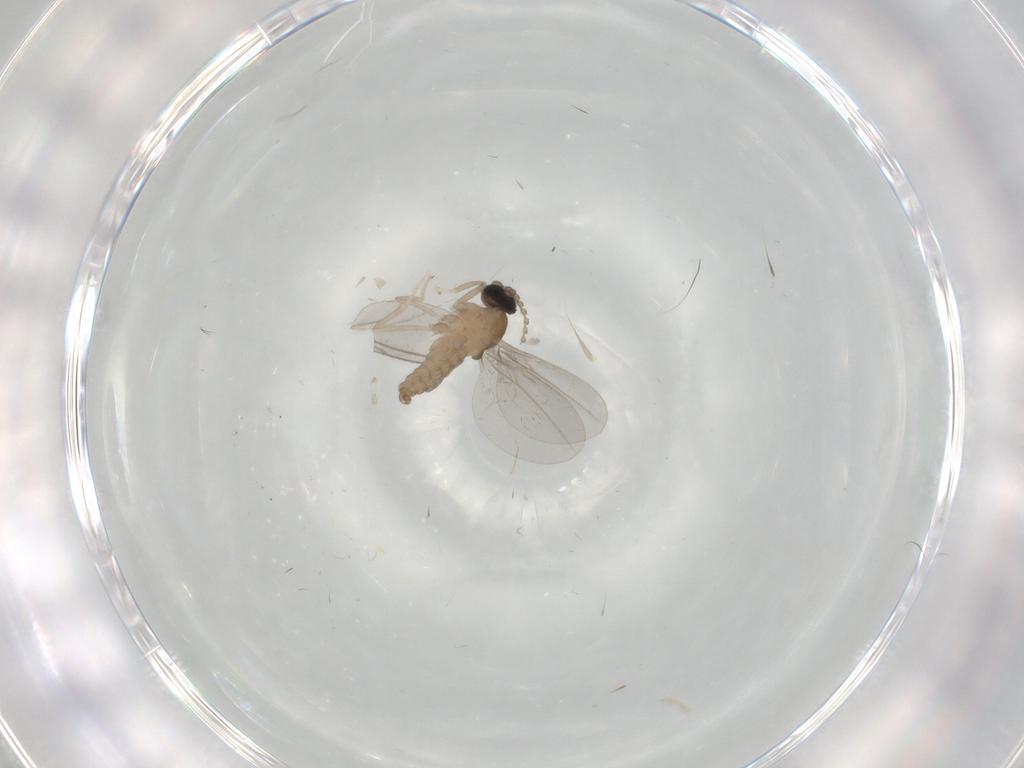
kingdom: Animalia
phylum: Arthropoda
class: Insecta
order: Diptera
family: Cecidomyiidae
